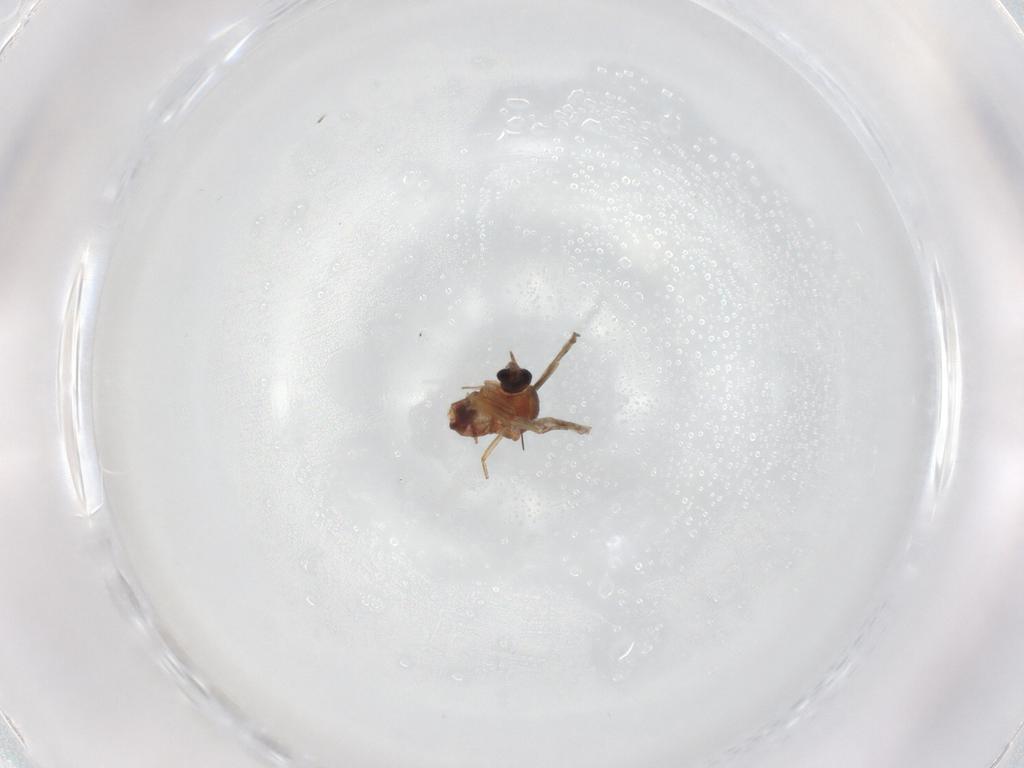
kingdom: Animalia
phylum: Arthropoda
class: Insecta
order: Diptera
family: Ceratopogonidae
